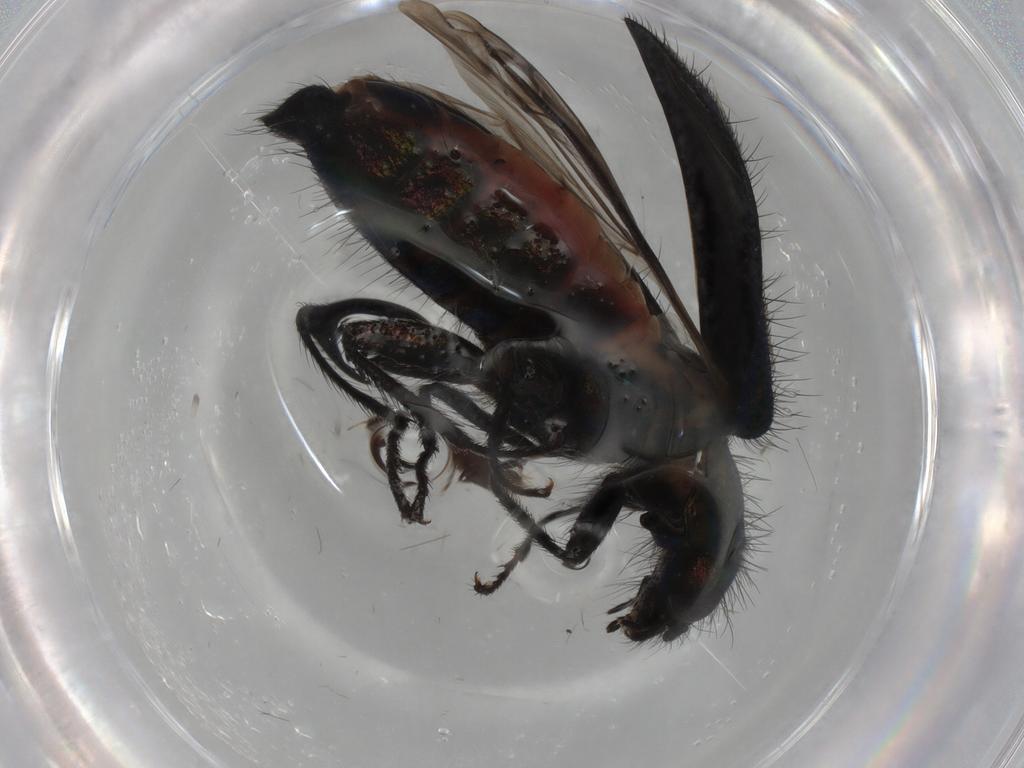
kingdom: Animalia
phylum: Arthropoda
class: Insecta
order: Coleoptera
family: Melyridae
